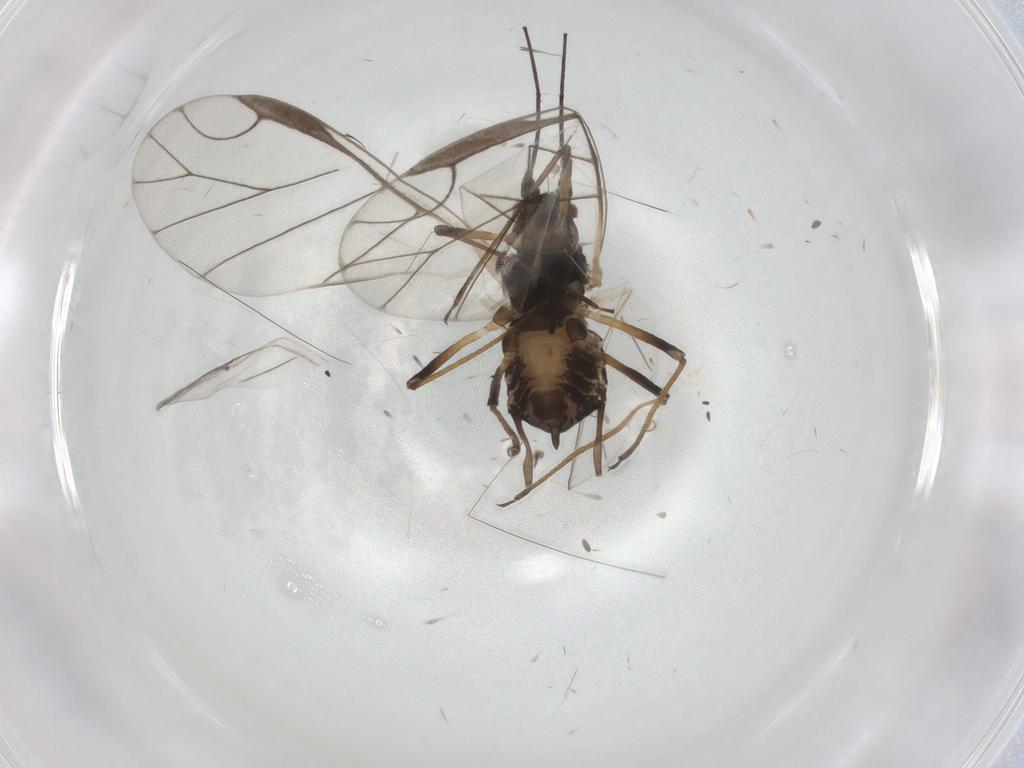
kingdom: Animalia
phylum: Arthropoda
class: Insecta
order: Hemiptera
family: Aphididae
